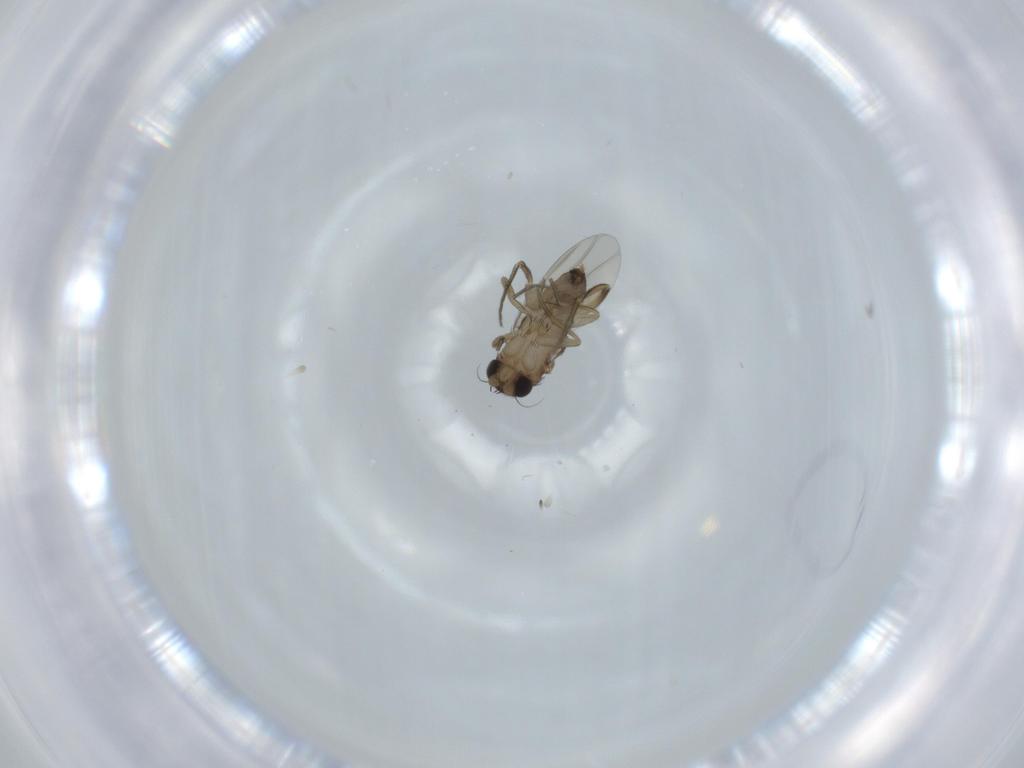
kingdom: Animalia
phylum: Arthropoda
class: Insecta
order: Diptera
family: Phoridae
